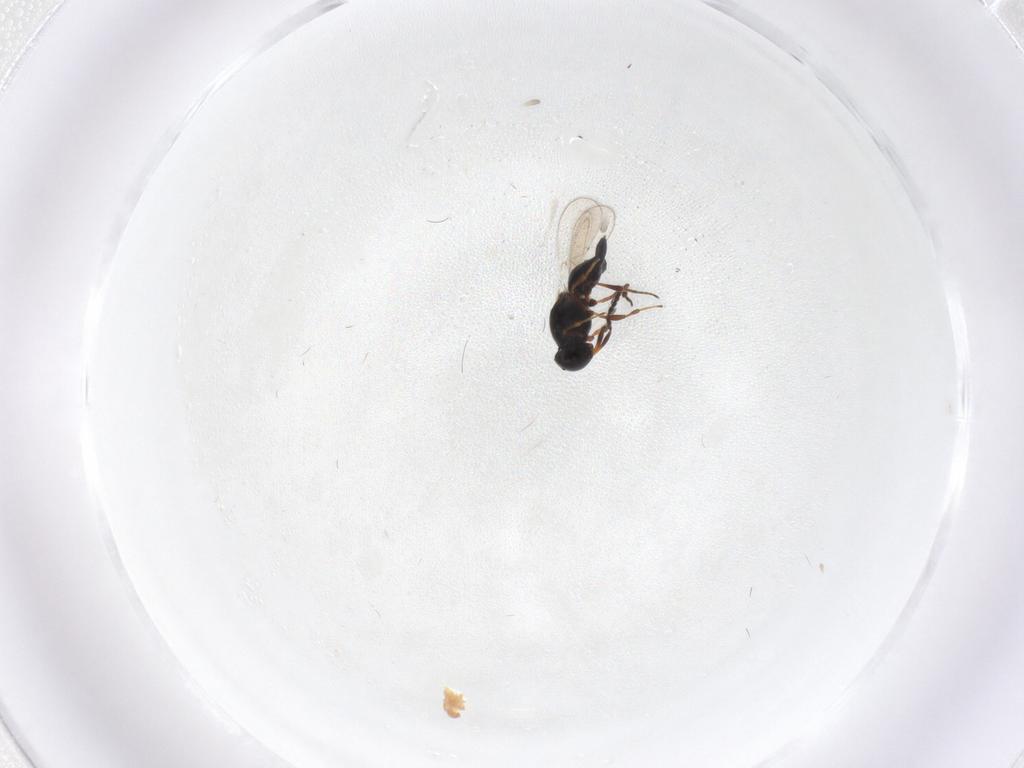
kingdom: Animalia
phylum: Arthropoda
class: Insecta
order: Hymenoptera
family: Platygastridae
